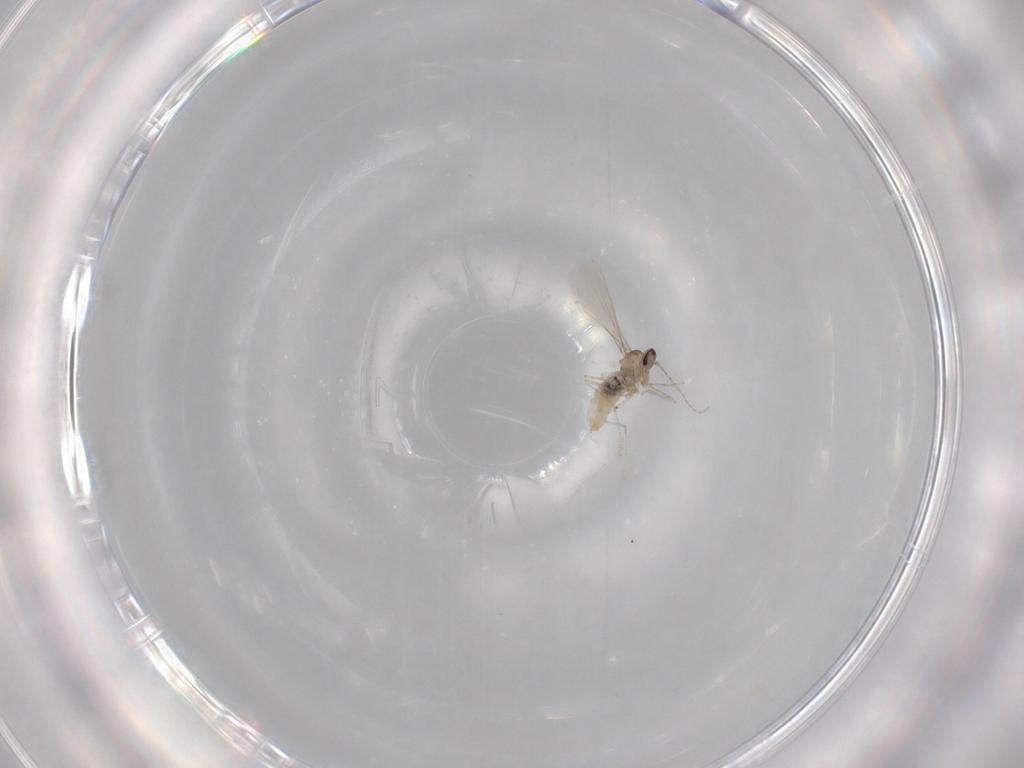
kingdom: Animalia
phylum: Arthropoda
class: Insecta
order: Diptera
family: Cecidomyiidae
